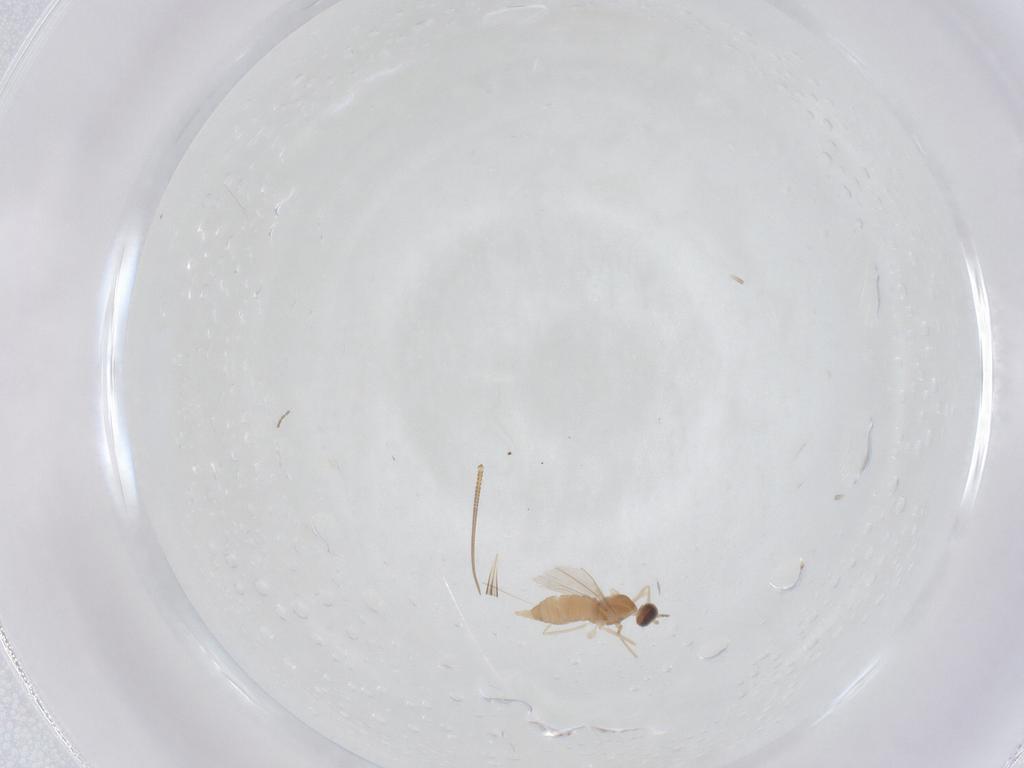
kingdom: Animalia
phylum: Arthropoda
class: Insecta
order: Diptera
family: Cecidomyiidae
